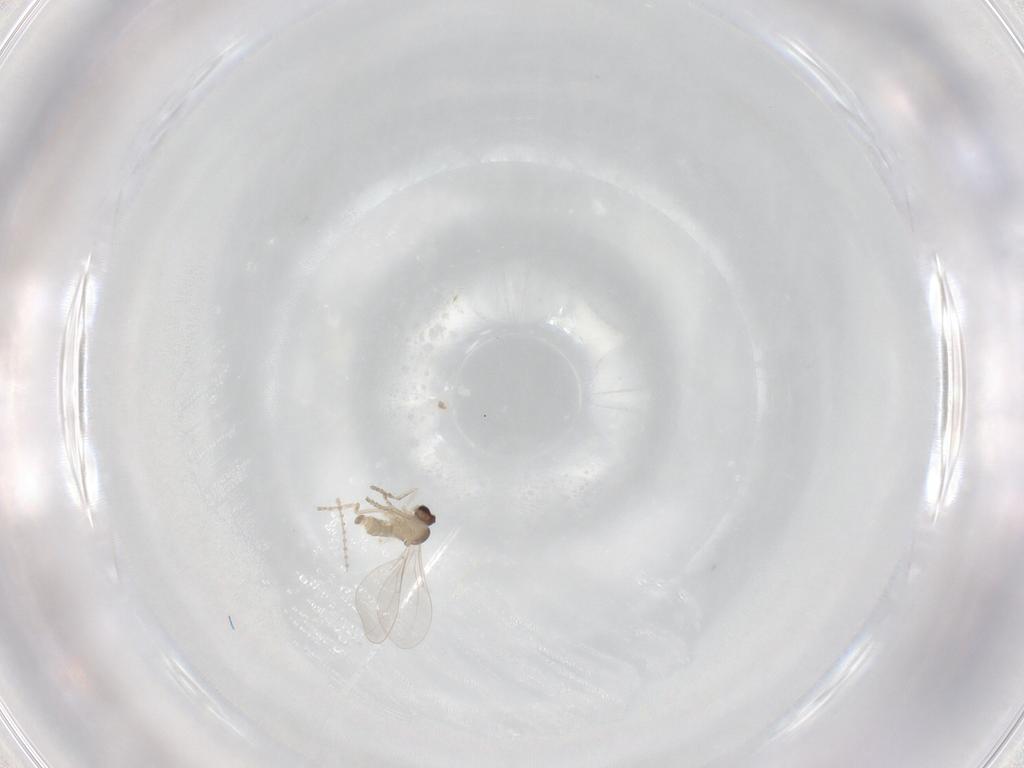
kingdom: Animalia
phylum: Arthropoda
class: Insecta
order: Diptera
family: Cecidomyiidae
